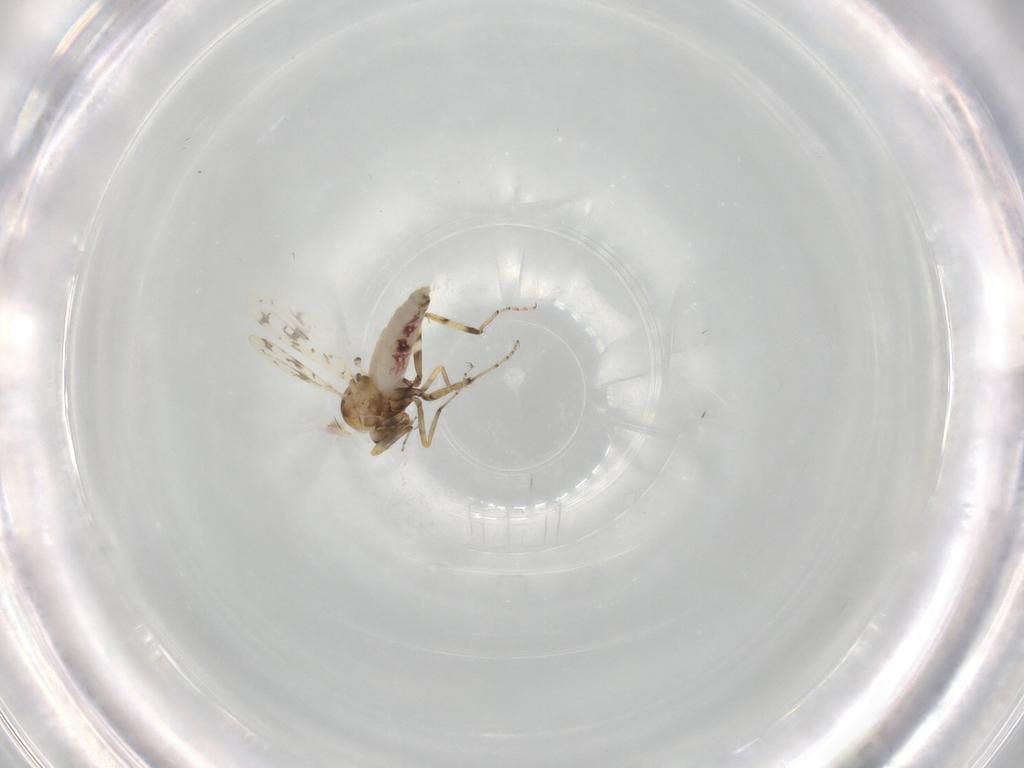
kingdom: Animalia
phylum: Arthropoda
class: Insecta
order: Diptera
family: Ceratopogonidae
